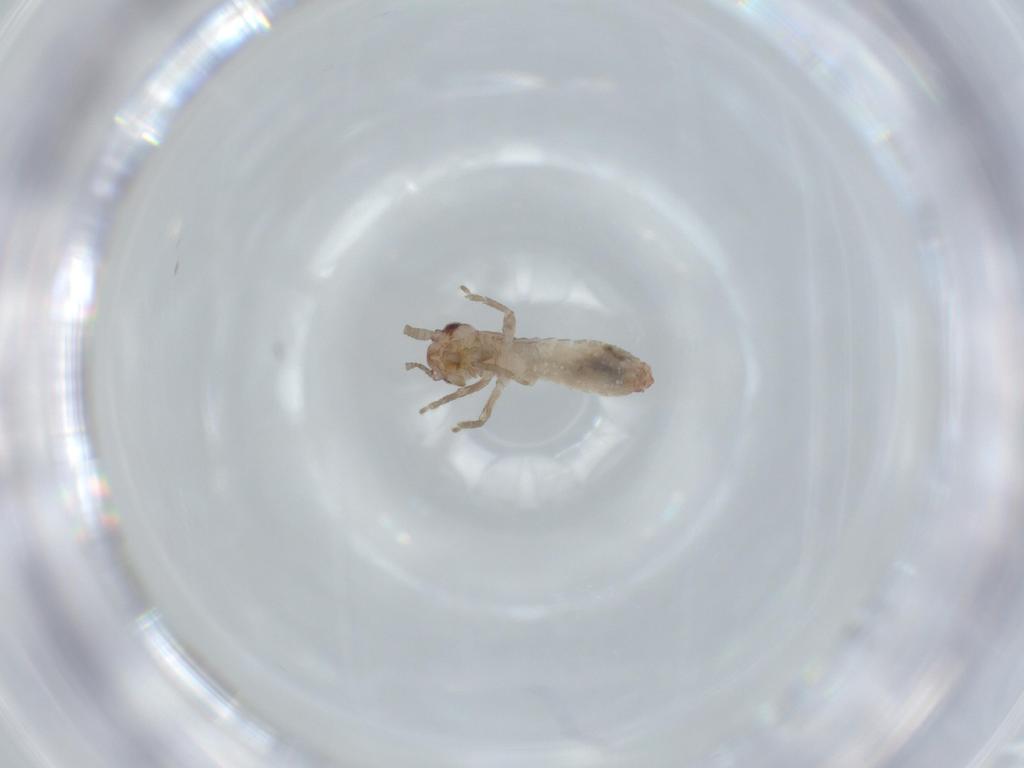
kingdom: Animalia
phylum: Arthropoda
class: Insecta
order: Orthoptera
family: Mogoplistidae
